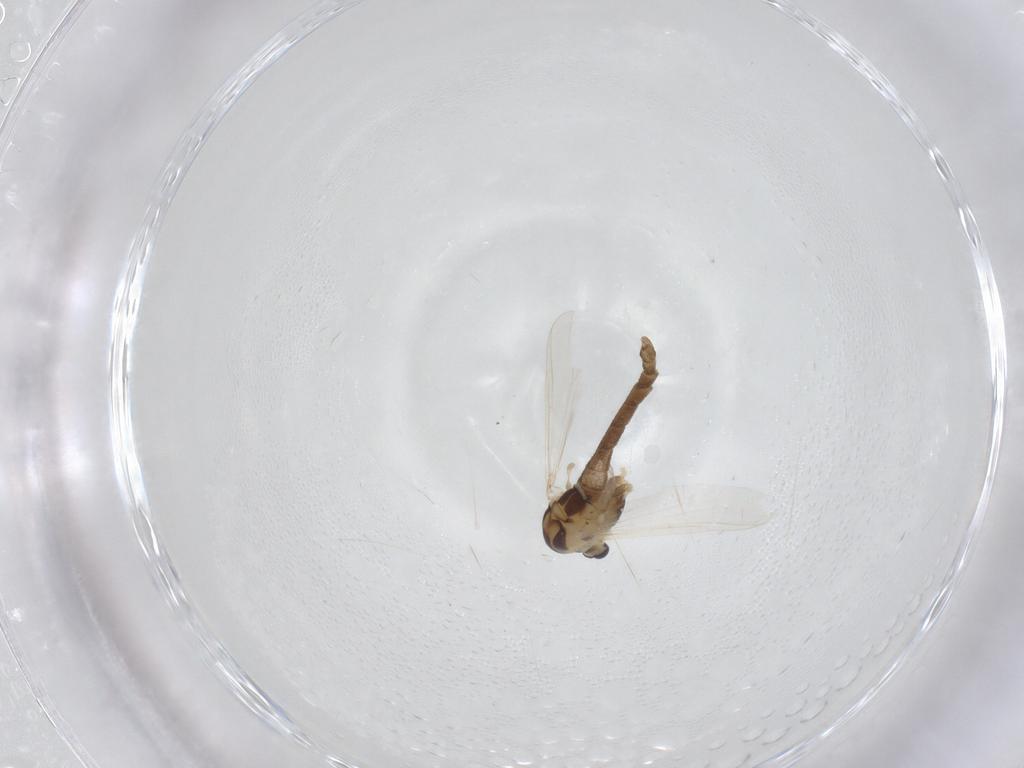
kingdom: Animalia
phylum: Arthropoda
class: Insecta
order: Diptera
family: Chironomidae
